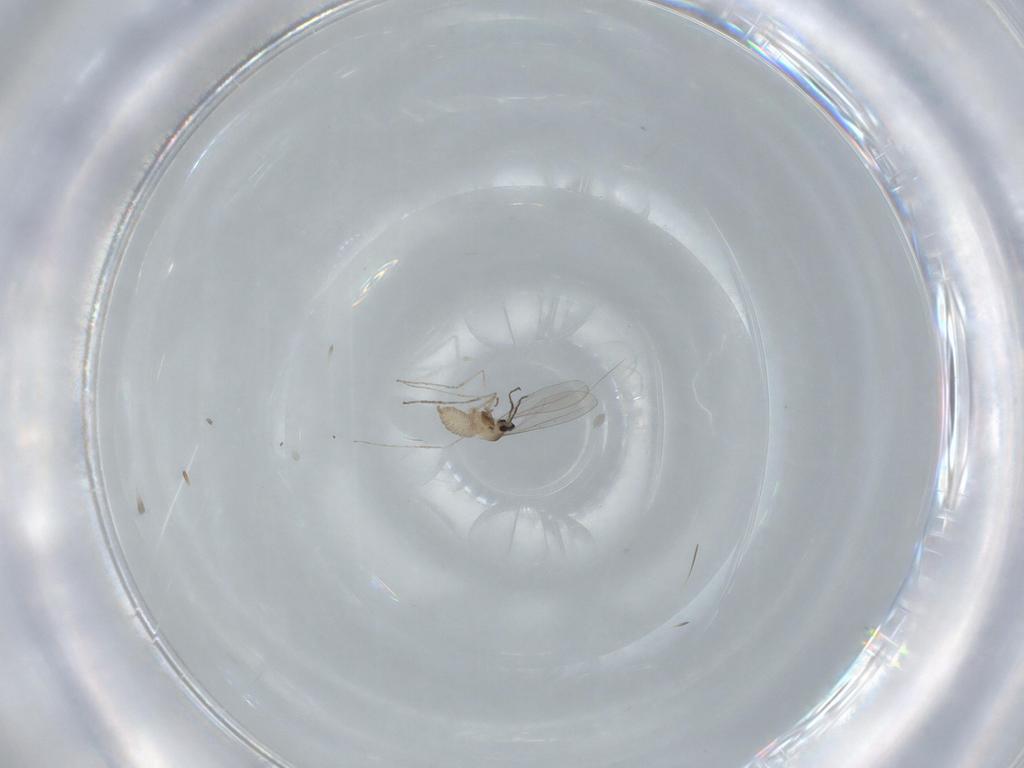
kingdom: Animalia
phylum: Arthropoda
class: Insecta
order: Diptera
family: Cecidomyiidae
